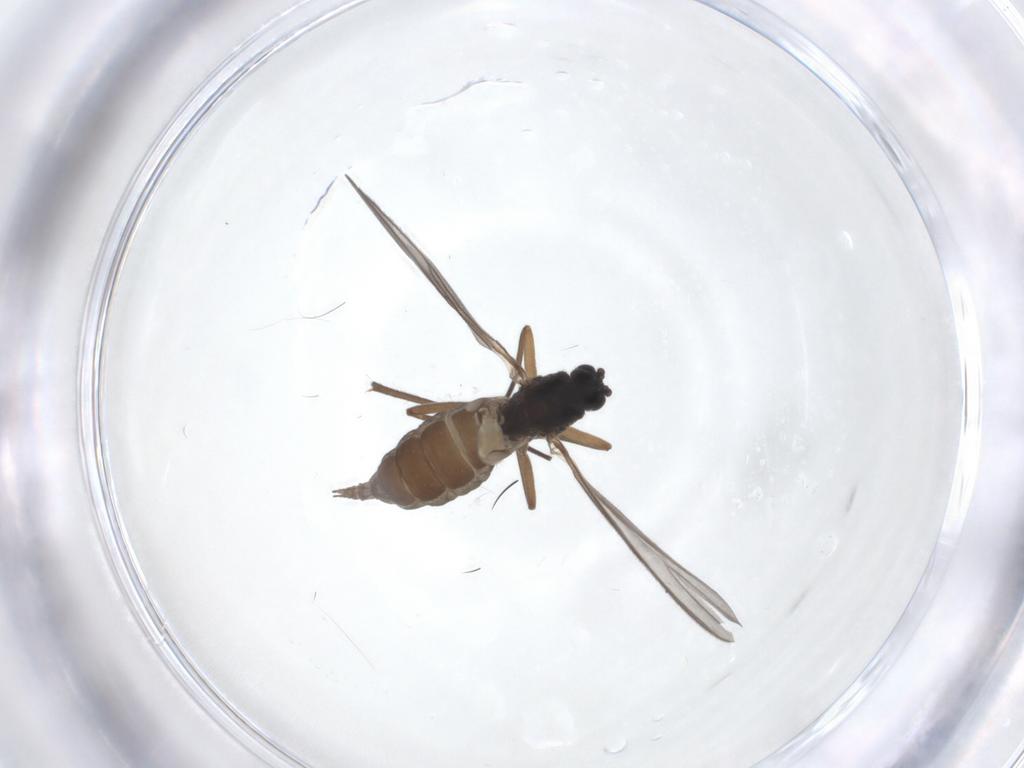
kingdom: Animalia
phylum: Arthropoda
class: Insecta
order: Diptera
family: Sciaridae
